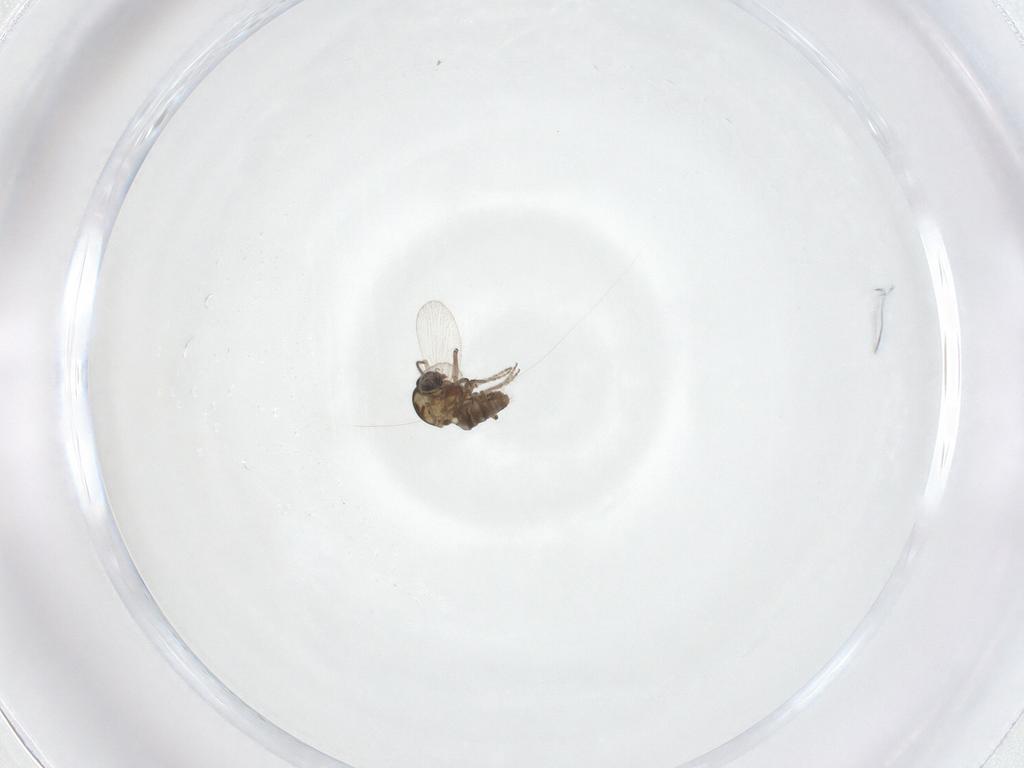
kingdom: Animalia
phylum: Arthropoda
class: Insecta
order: Diptera
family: Ceratopogonidae
